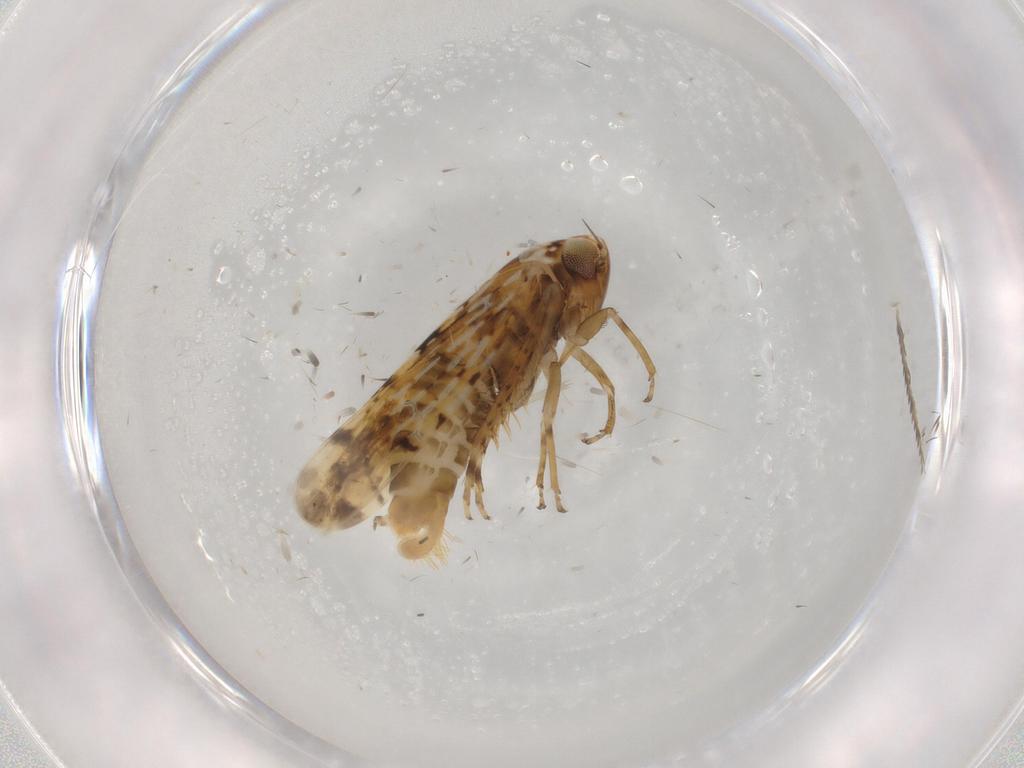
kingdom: Animalia
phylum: Arthropoda
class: Insecta
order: Hemiptera
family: Cicadellidae
